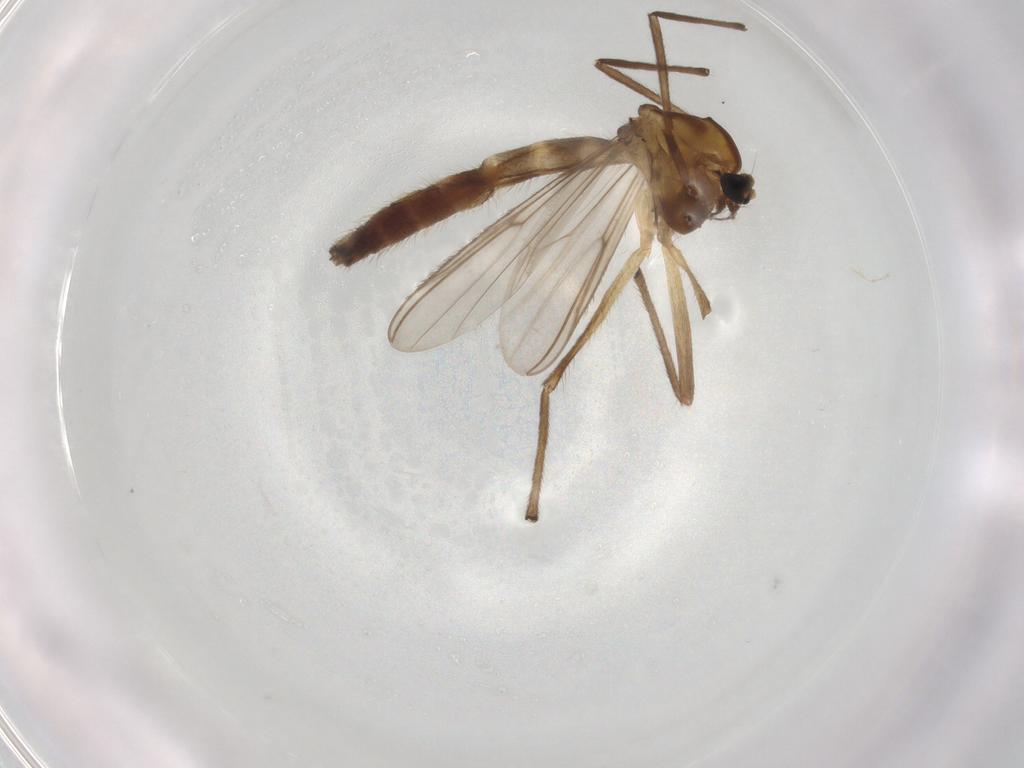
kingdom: Animalia
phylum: Arthropoda
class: Insecta
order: Diptera
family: Chironomidae
